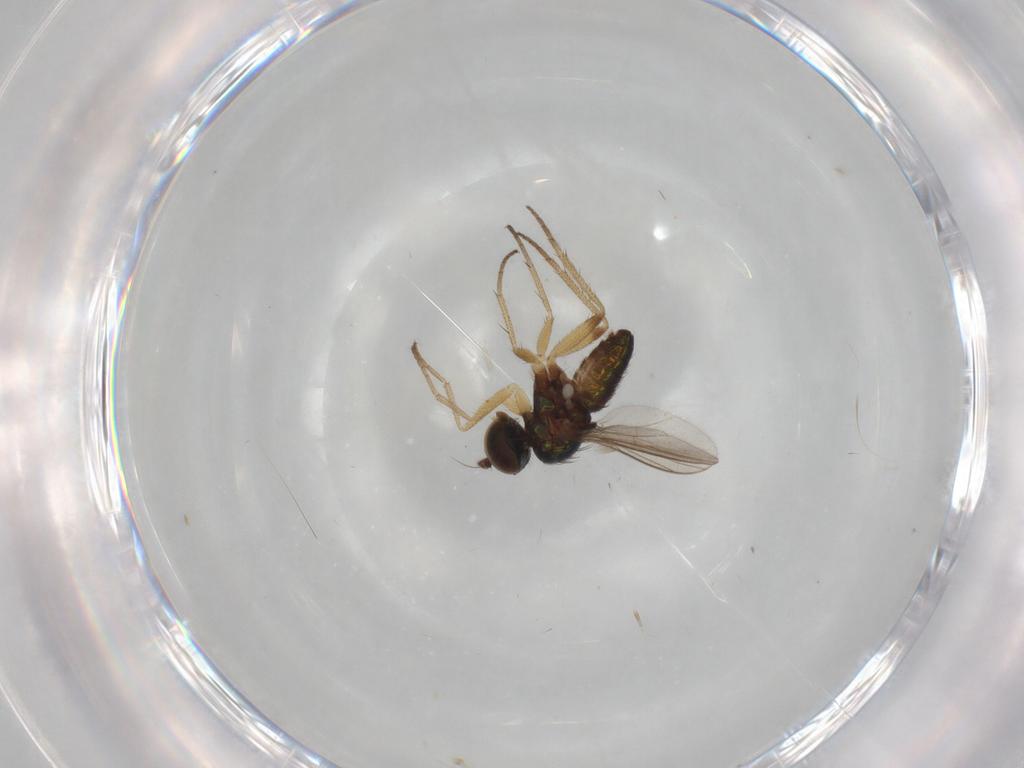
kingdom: Animalia
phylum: Arthropoda
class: Insecta
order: Diptera
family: Ceratopogonidae
